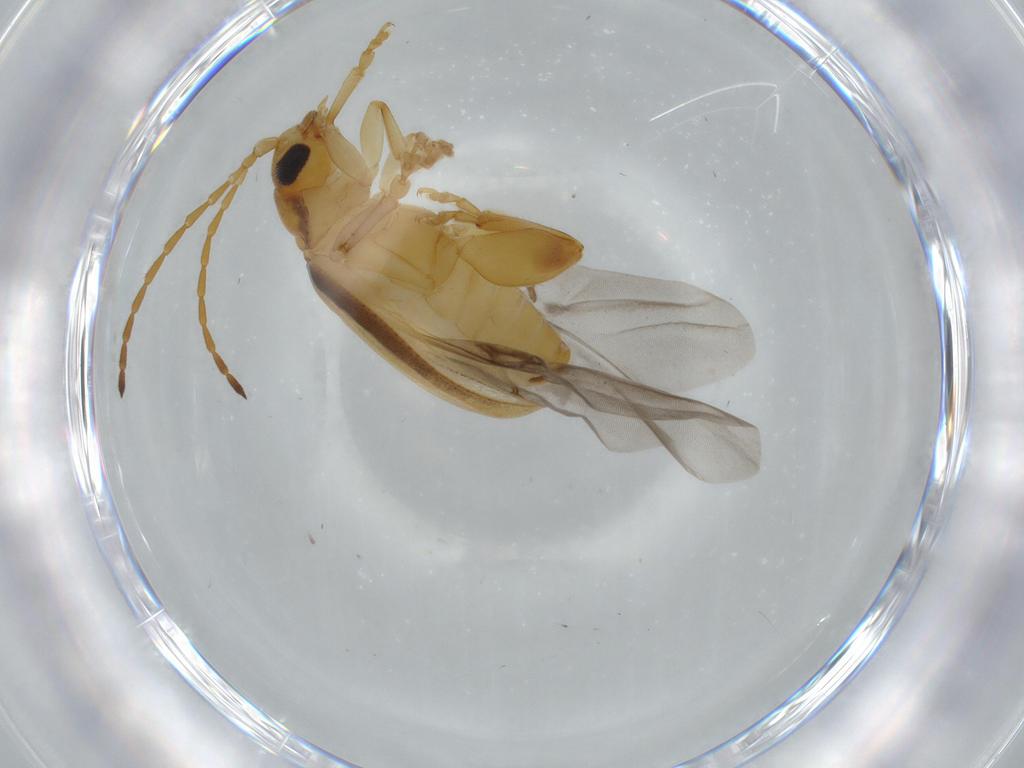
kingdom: Animalia
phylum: Arthropoda
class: Insecta
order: Coleoptera
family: Chrysomelidae
